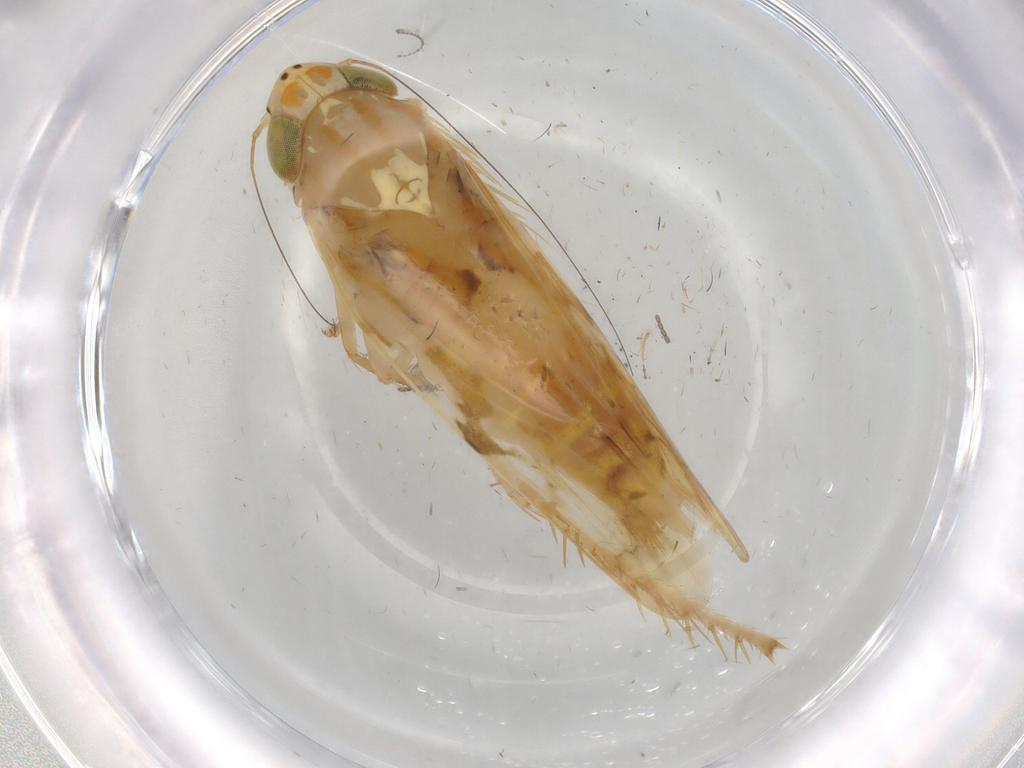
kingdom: Animalia
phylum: Arthropoda
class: Insecta
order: Hemiptera
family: Cicadellidae
